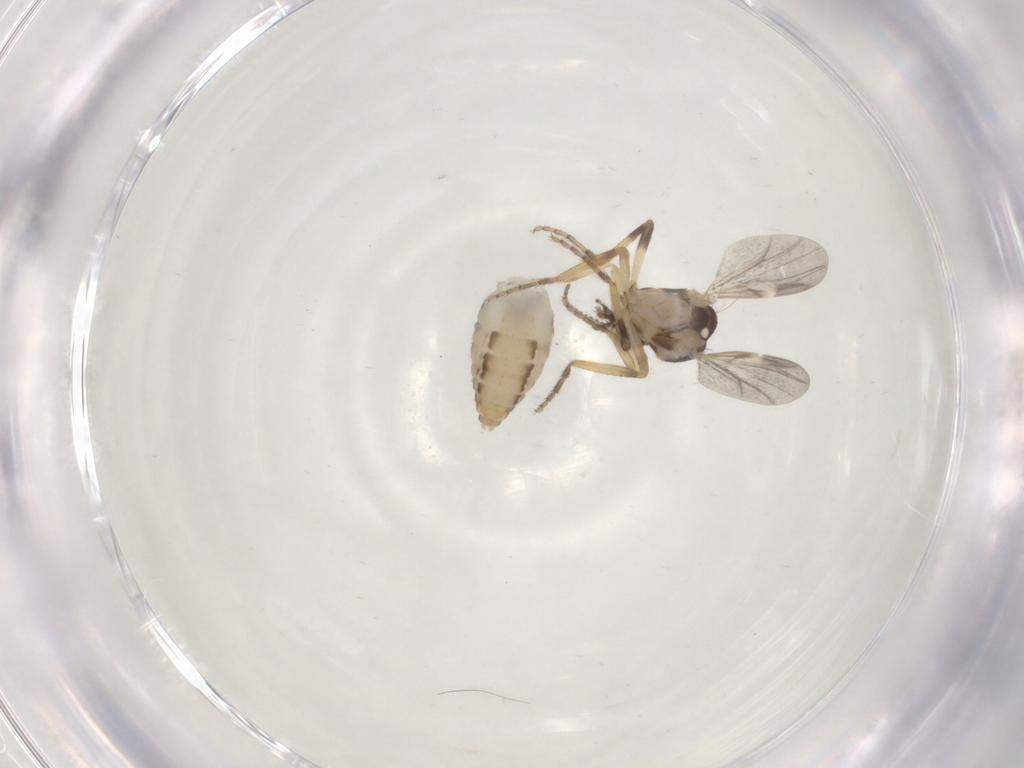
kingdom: Animalia
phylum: Arthropoda
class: Insecta
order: Diptera
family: Ceratopogonidae
